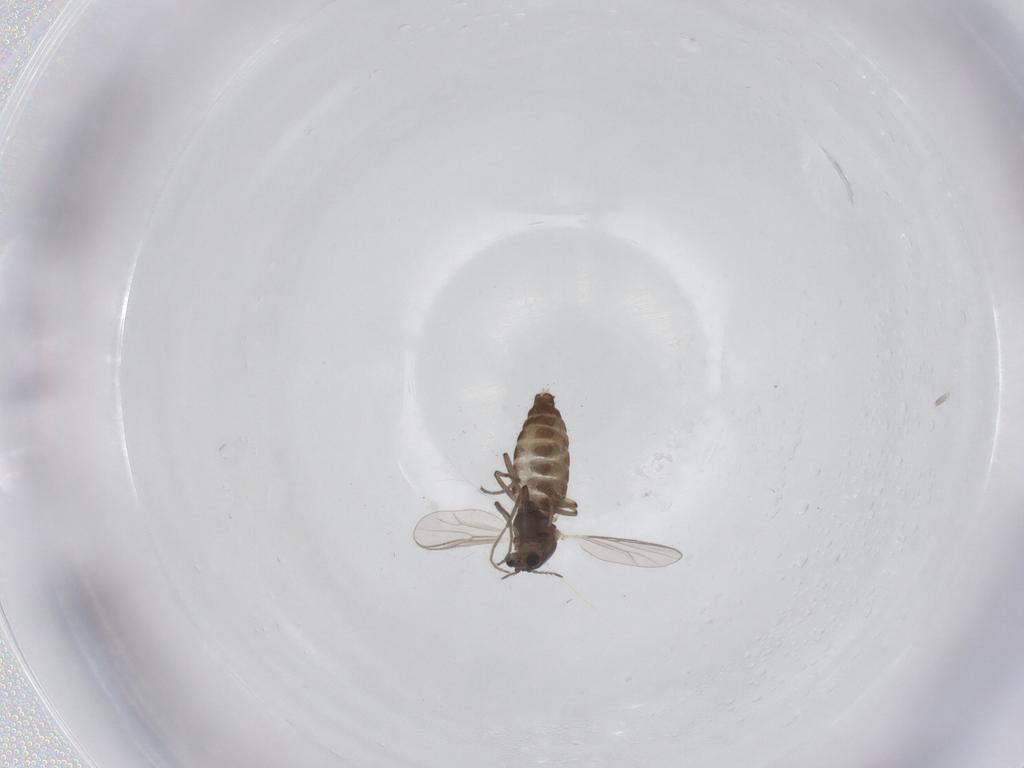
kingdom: Animalia
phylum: Arthropoda
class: Insecta
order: Diptera
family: Chironomidae
